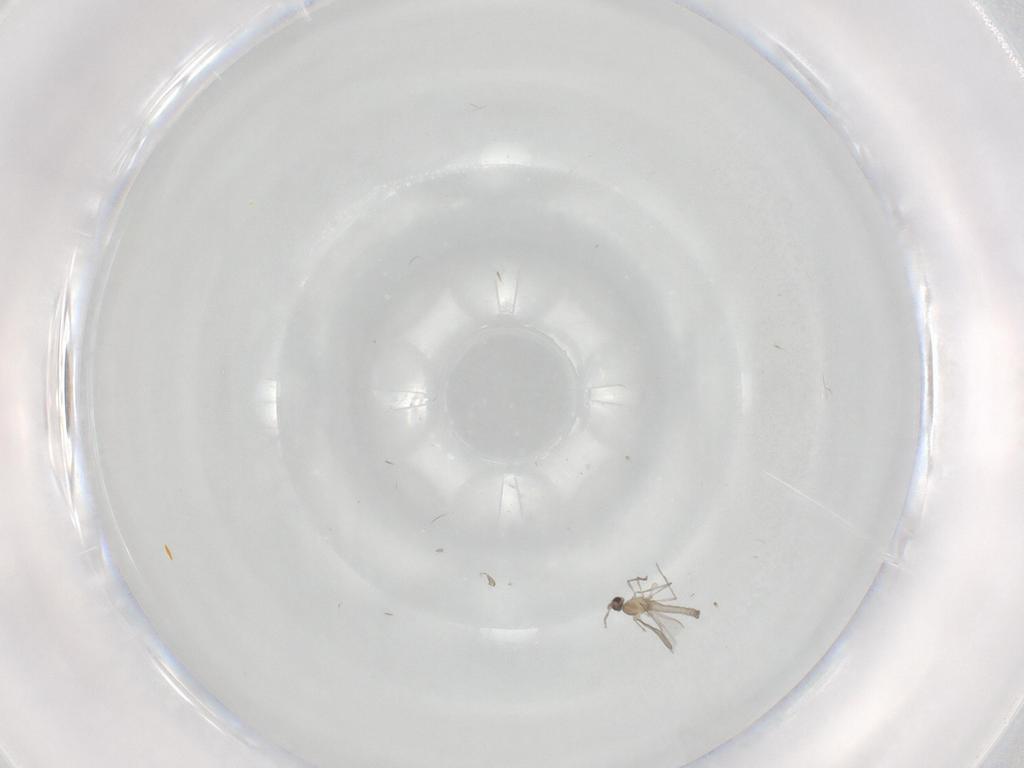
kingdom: Animalia
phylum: Arthropoda
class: Insecta
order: Diptera
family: Cecidomyiidae
